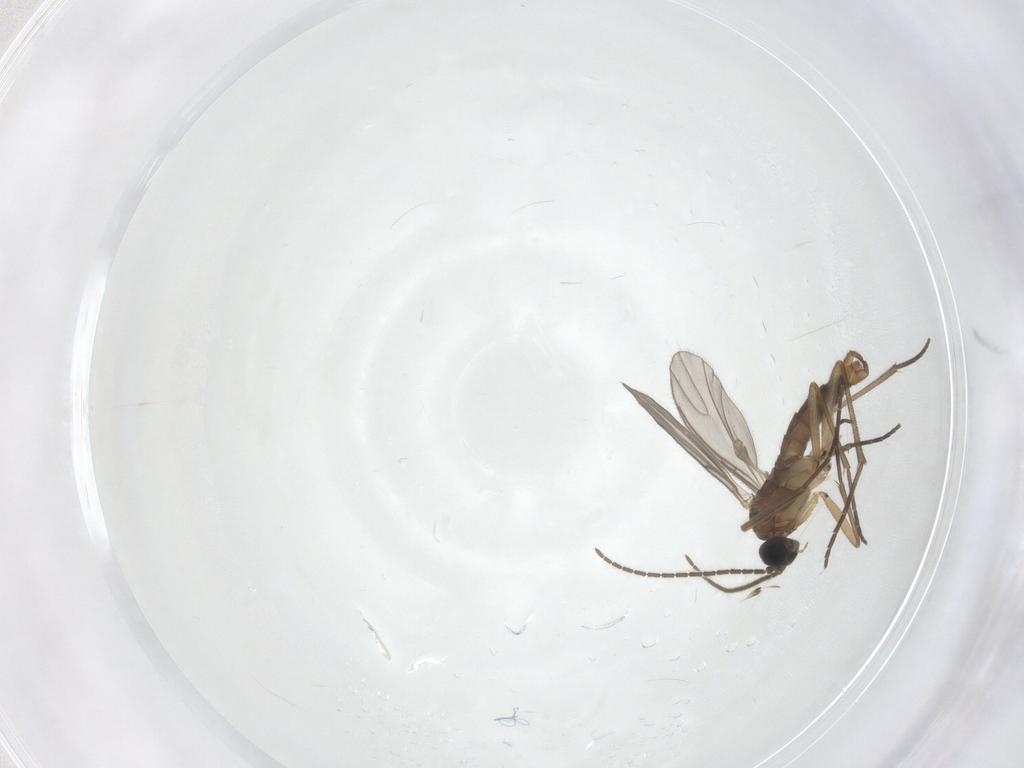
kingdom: Animalia
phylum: Arthropoda
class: Insecta
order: Diptera
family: Sciaridae
